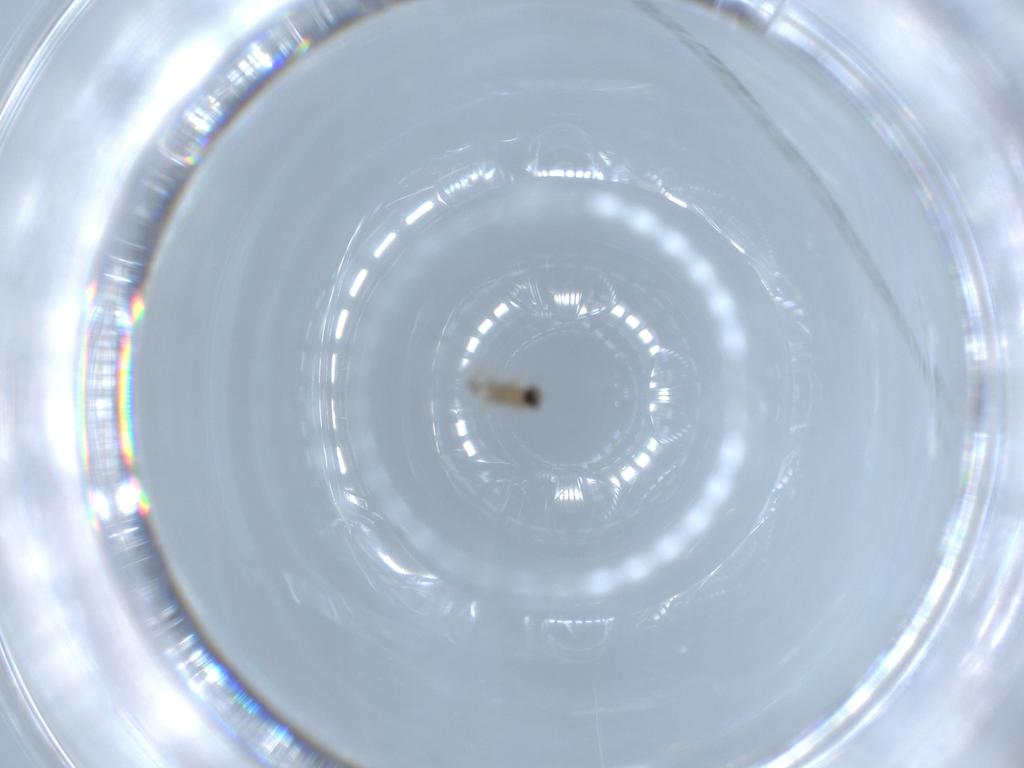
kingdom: Animalia
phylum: Arthropoda
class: Insecta
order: Diptera
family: Cecidomyiidae
